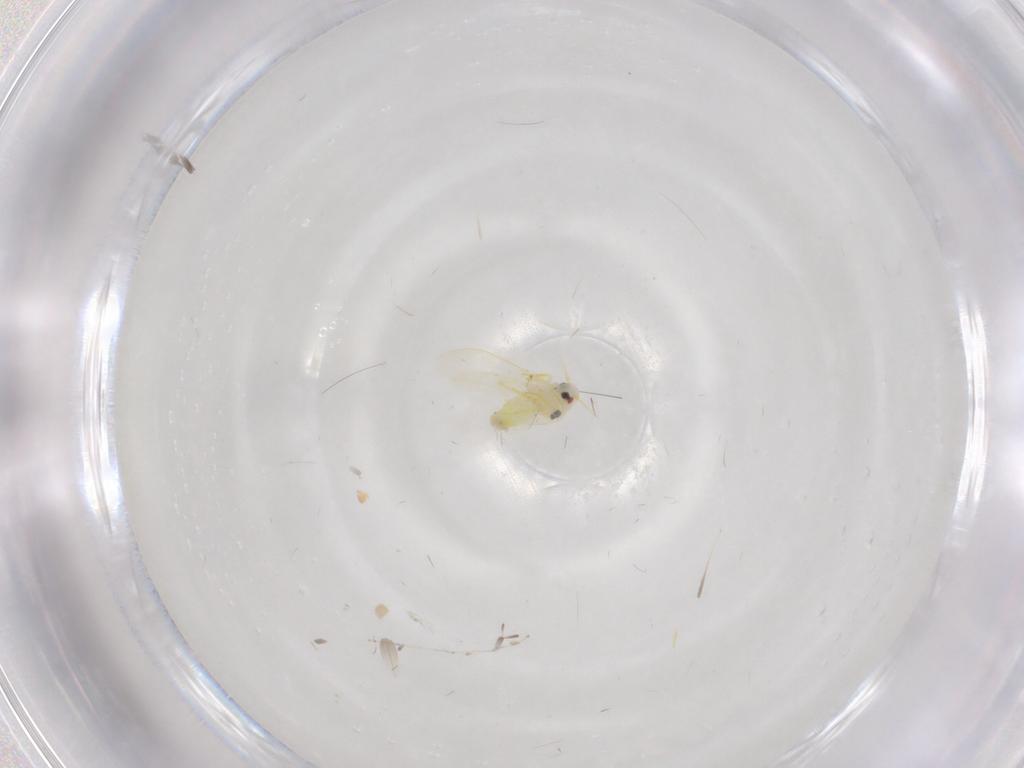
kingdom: Animalia
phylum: Arthropoda
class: Insecta
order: Hemiptera
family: Aleyrodidae
